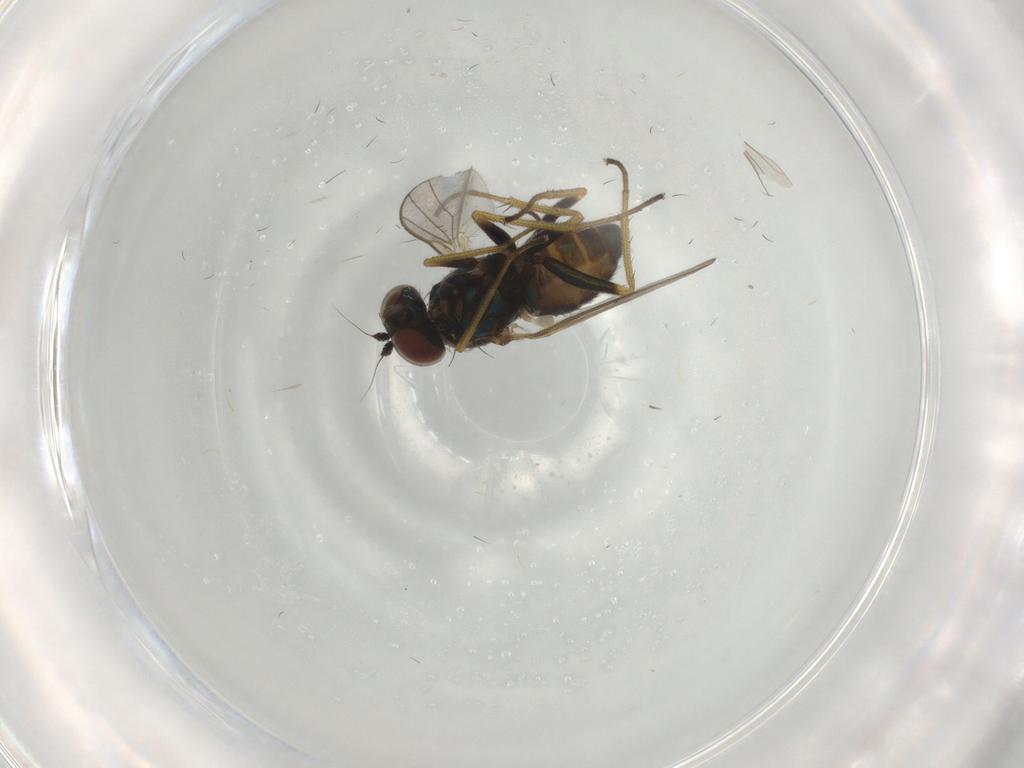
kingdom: Animalia
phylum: Arthropoda
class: Insecta
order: Diptera
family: Dolichopodidae
